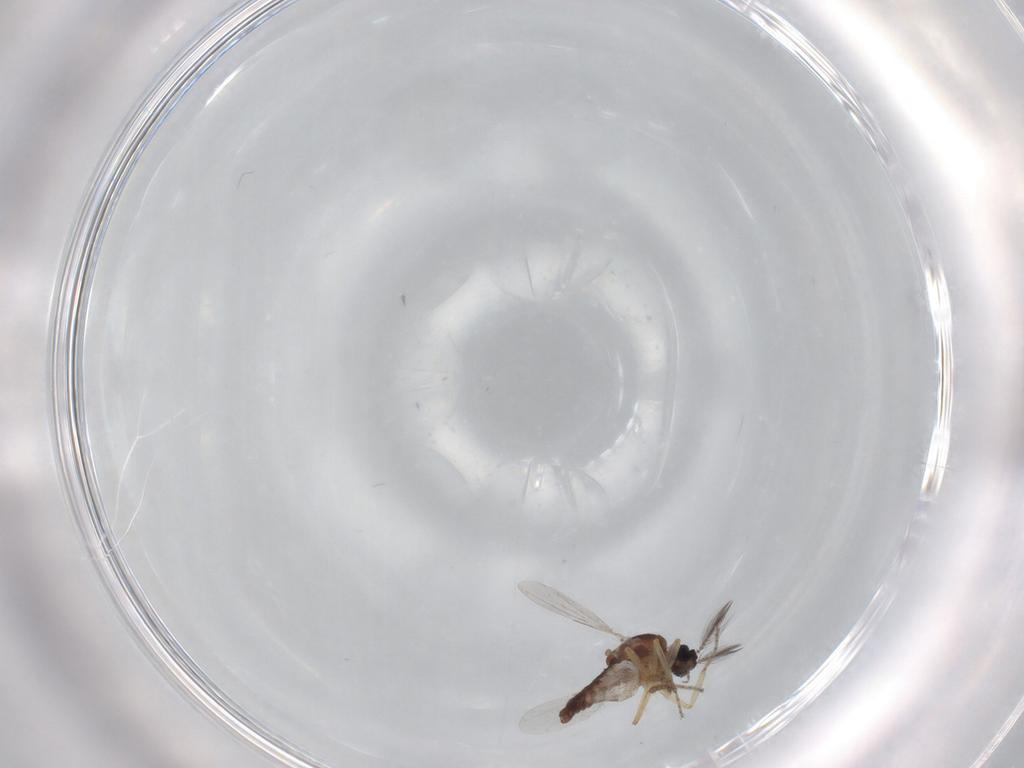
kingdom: Animalia
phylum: Arthropoda
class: Insecta
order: Diptera
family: Ceratopogonidae
